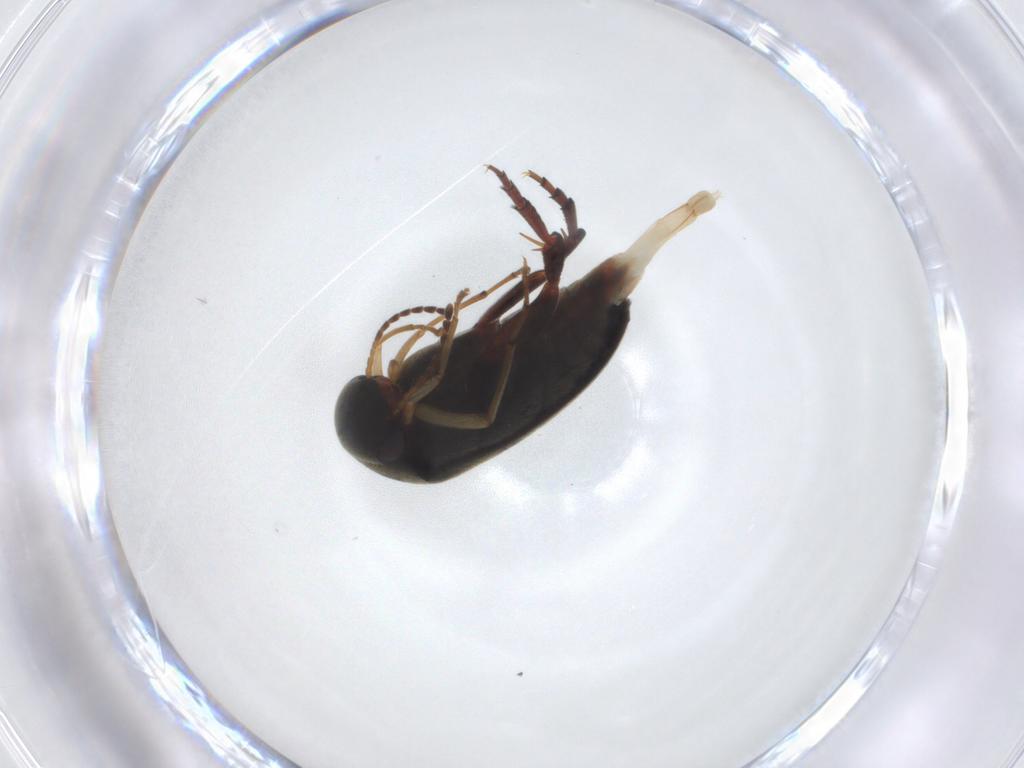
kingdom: Animalia
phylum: Arthropoda
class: Insecta
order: Coleoptera
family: Mordellidae
